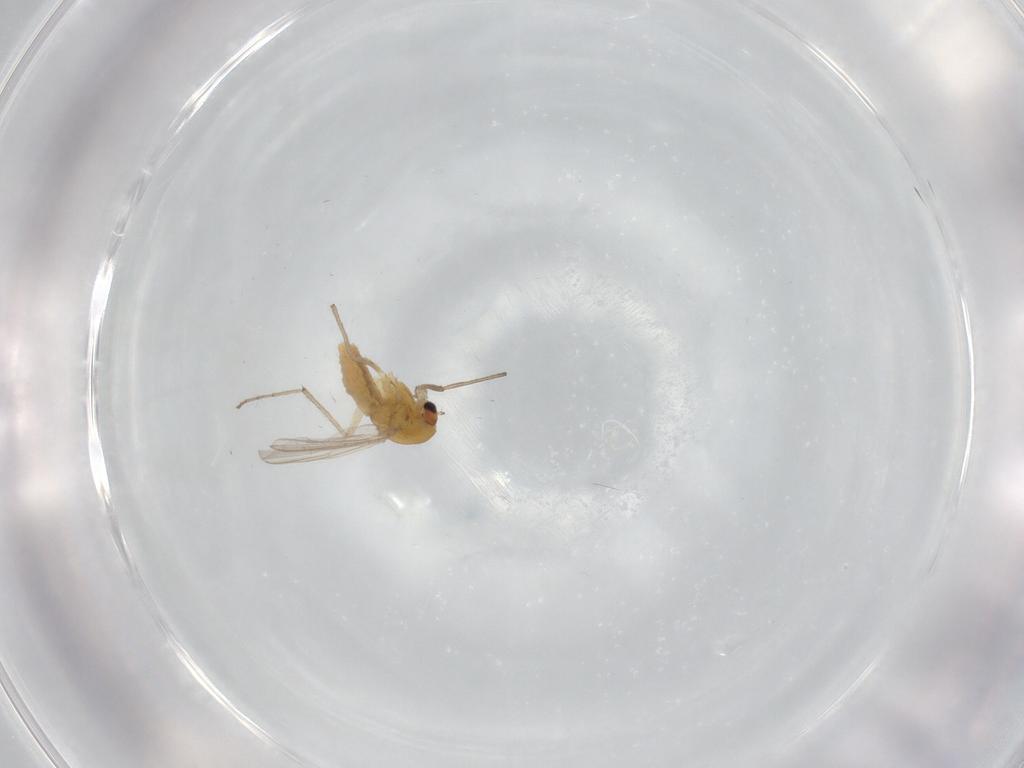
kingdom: Animalia
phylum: Arthropoda
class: Insecta
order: Diptera
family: Chironomidae
